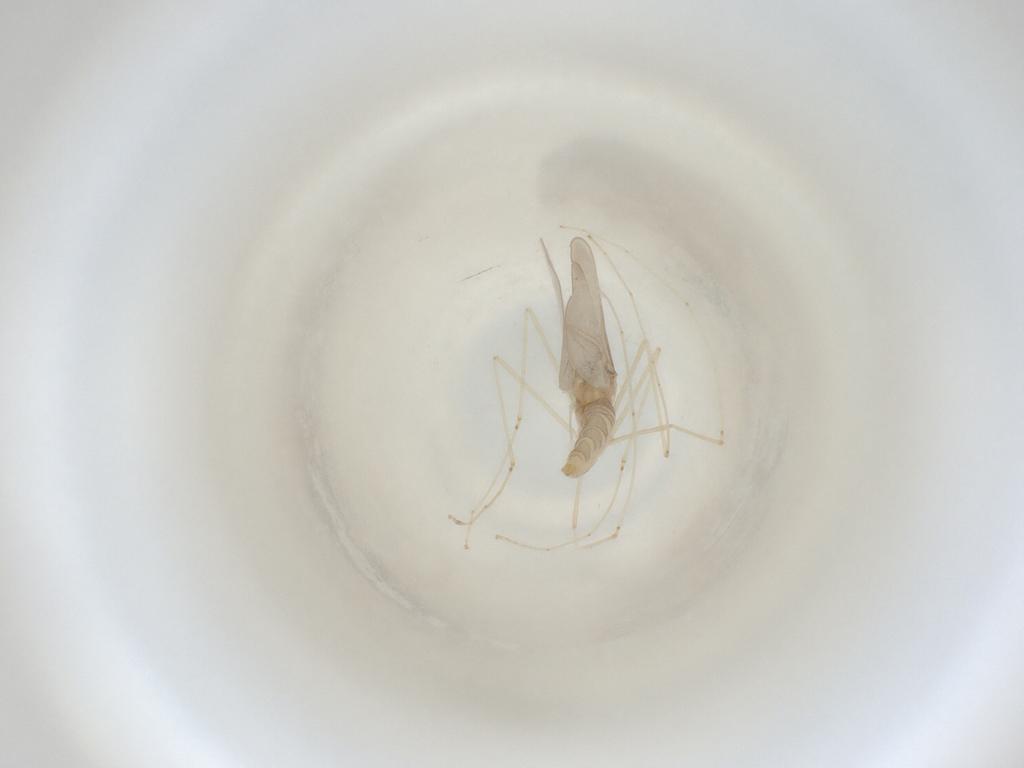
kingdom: Animalia
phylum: Arthropoda
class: Insecta
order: Diptera
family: Cecidomyiidae
